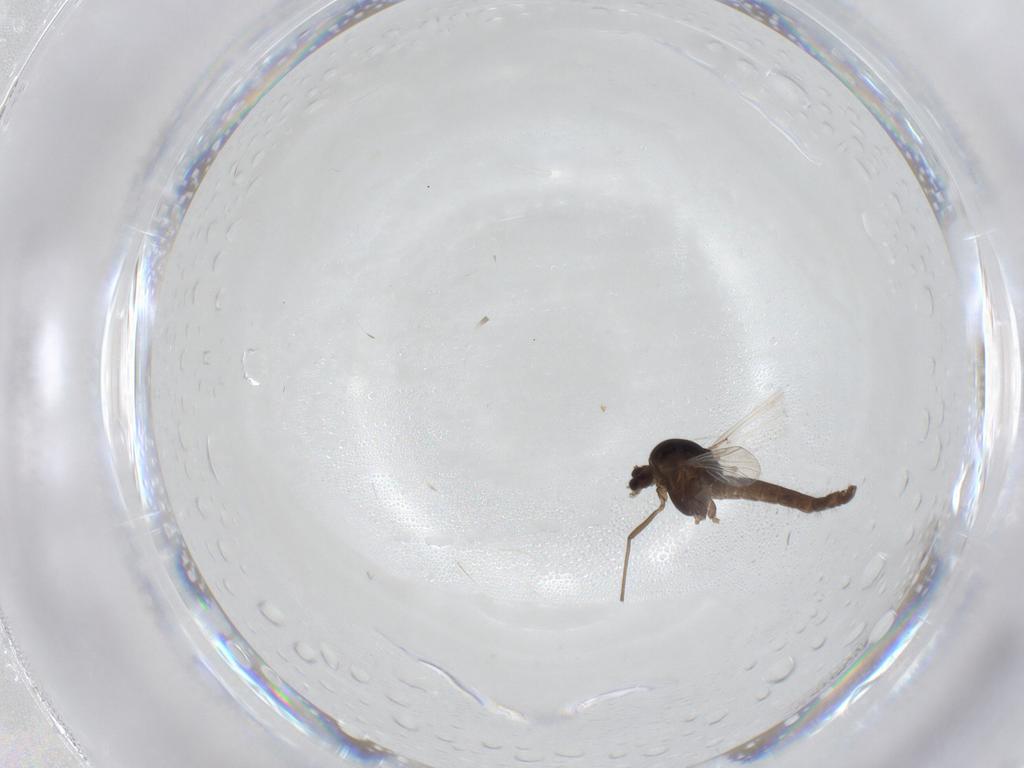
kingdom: Animalia
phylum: Arthropoda
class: Insecta
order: Diptera
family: Chironomidae
